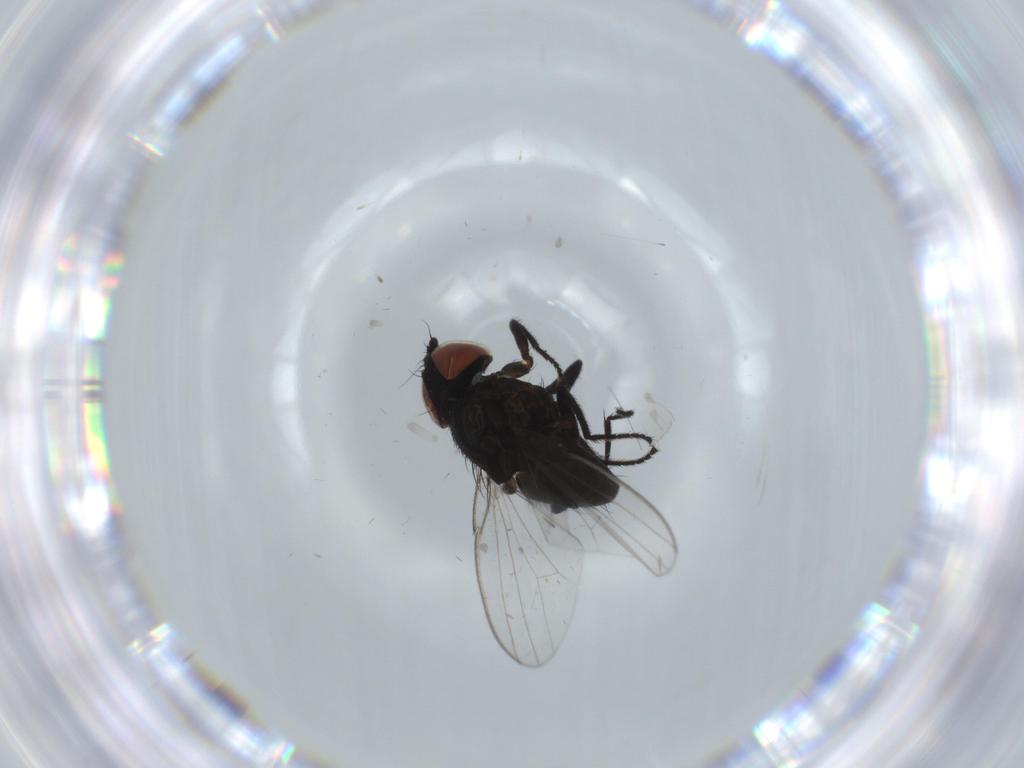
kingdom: Animalia
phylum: Arthropoda
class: Insecta
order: Diptera
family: Milichiidae
